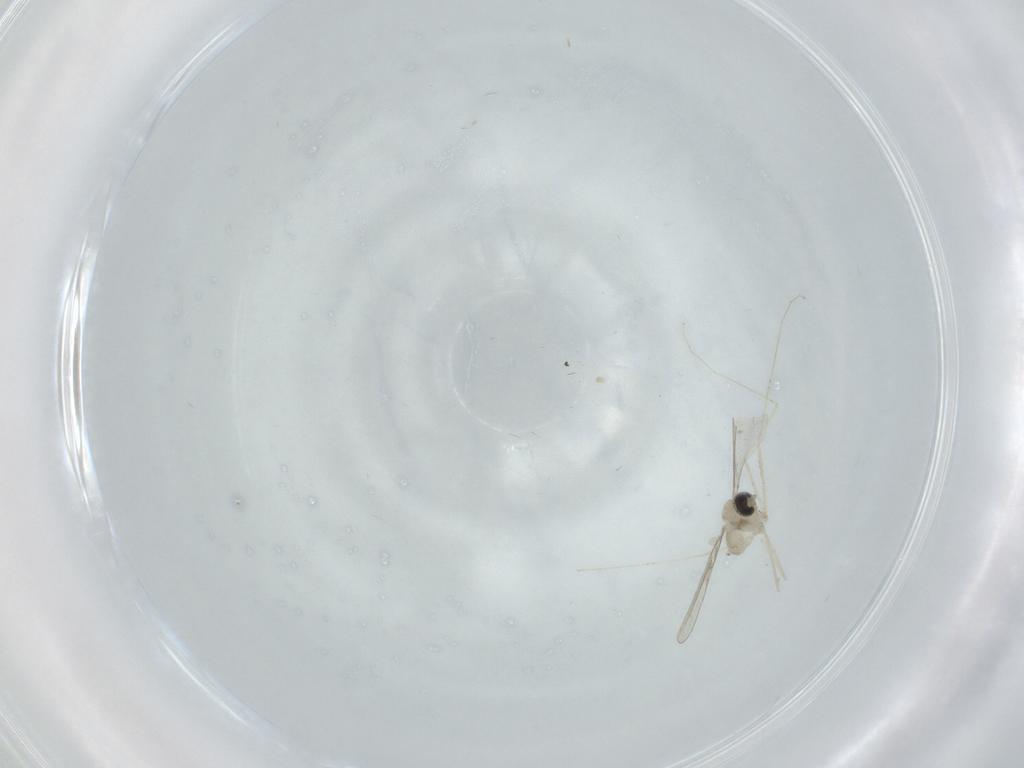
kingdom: Animalia
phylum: Arthropoda
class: Insecta
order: Diptera
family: Cecidomyiidae
